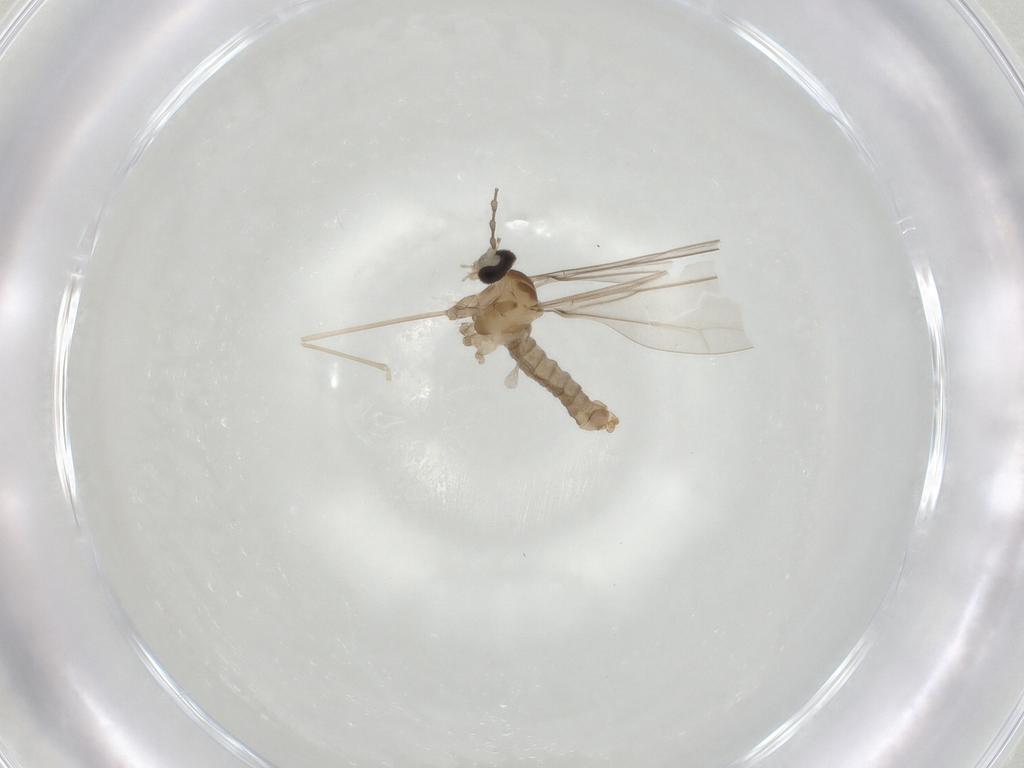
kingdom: Animalia
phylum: Arthropoda
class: Insecta
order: Diptera
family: Cecidomyiidae
